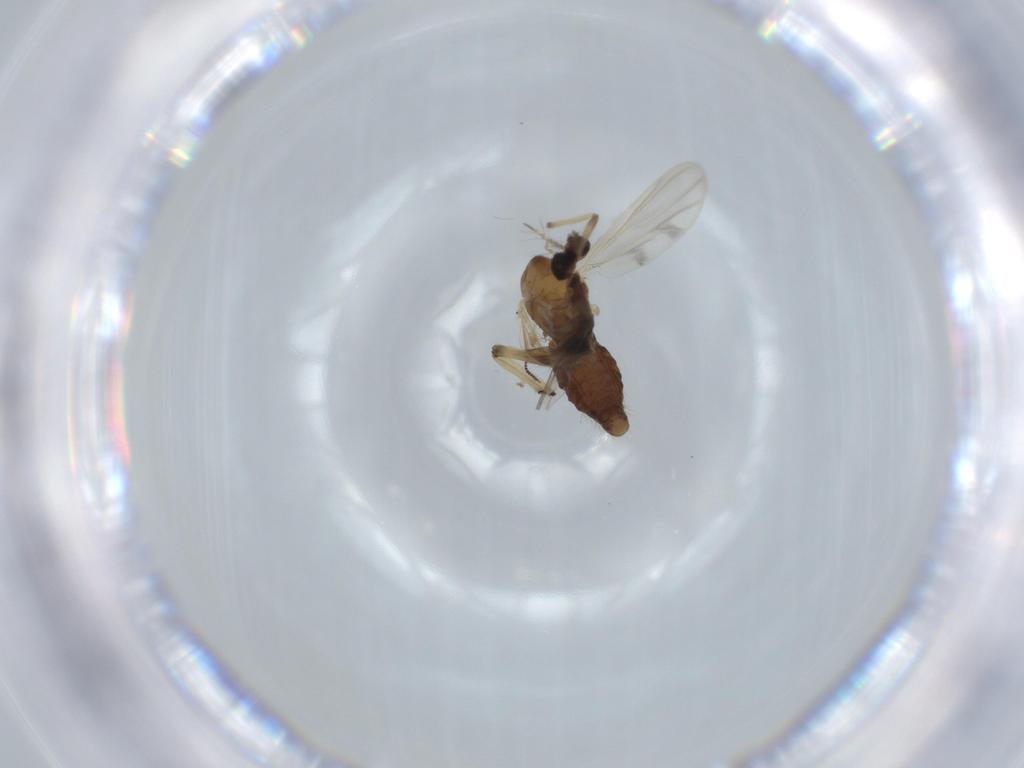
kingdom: Animalia
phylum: Arthropoda
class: Insecta
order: Diptera
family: Chironomidae
